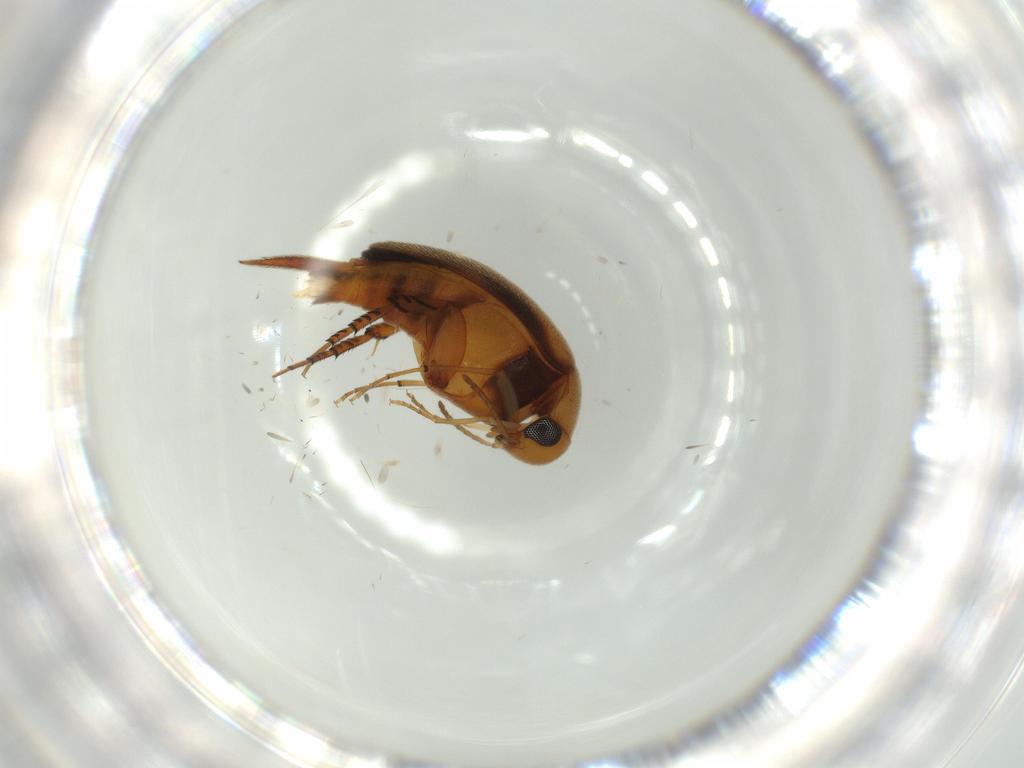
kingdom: Animalia
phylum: Arthropoda
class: Insecta
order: Coleoptera
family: Mordellidae
